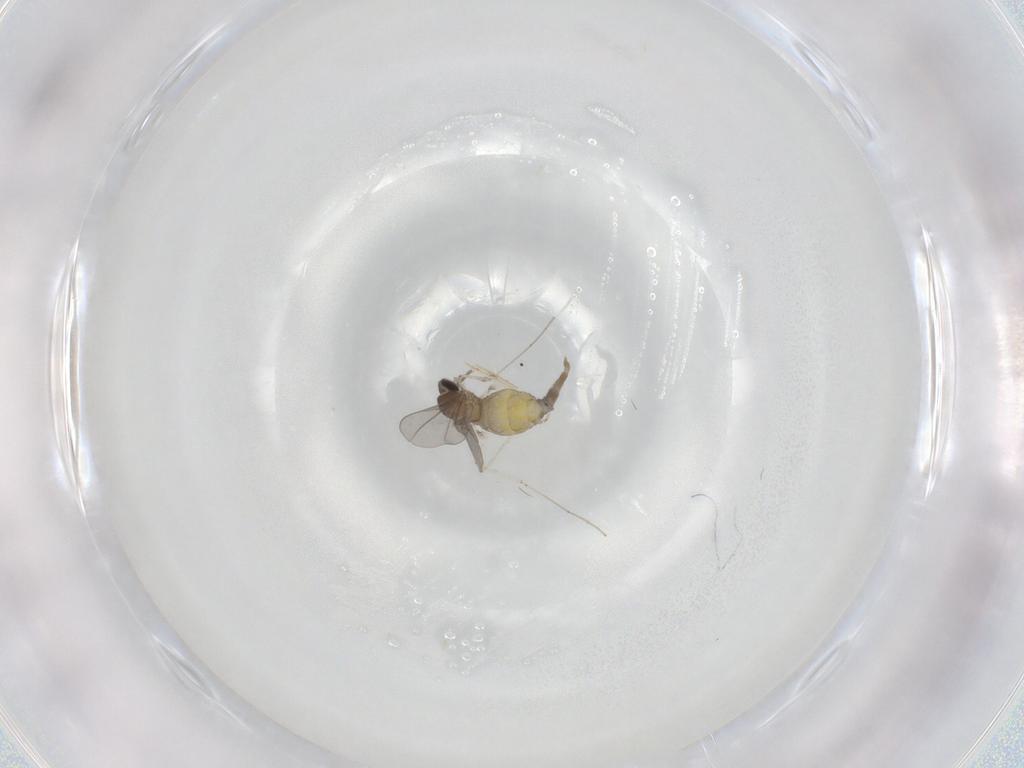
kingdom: Animalia
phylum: Arthropoda
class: Insecta
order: Diptera
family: Cecidomyiidae
